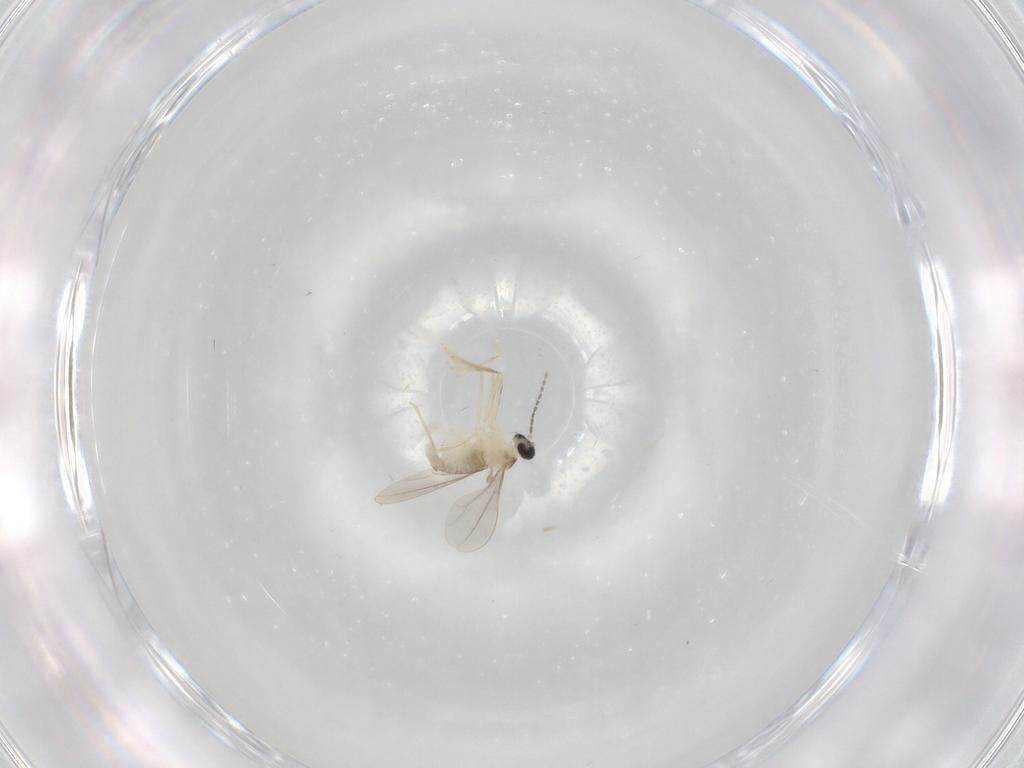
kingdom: Animalia
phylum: Arthropoda
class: Insecta
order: Diptera
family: Cecidomyiidae
